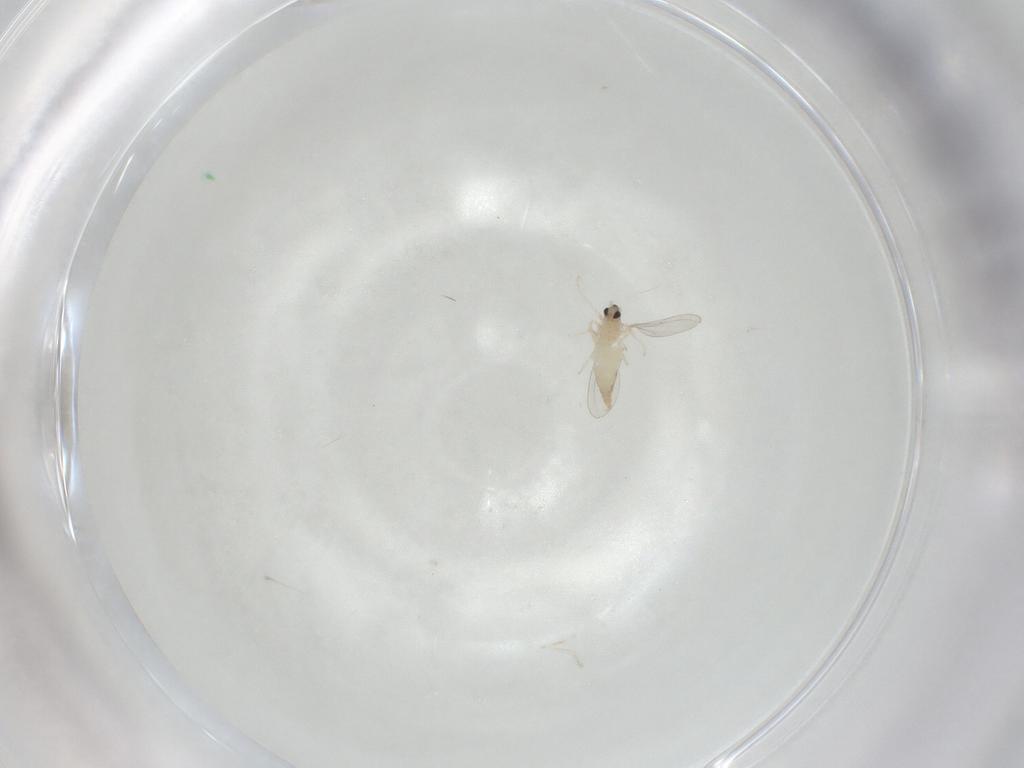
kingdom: Animalia
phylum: Arthropoda
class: Insecta
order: Diptera
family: Cecidomyiidae
